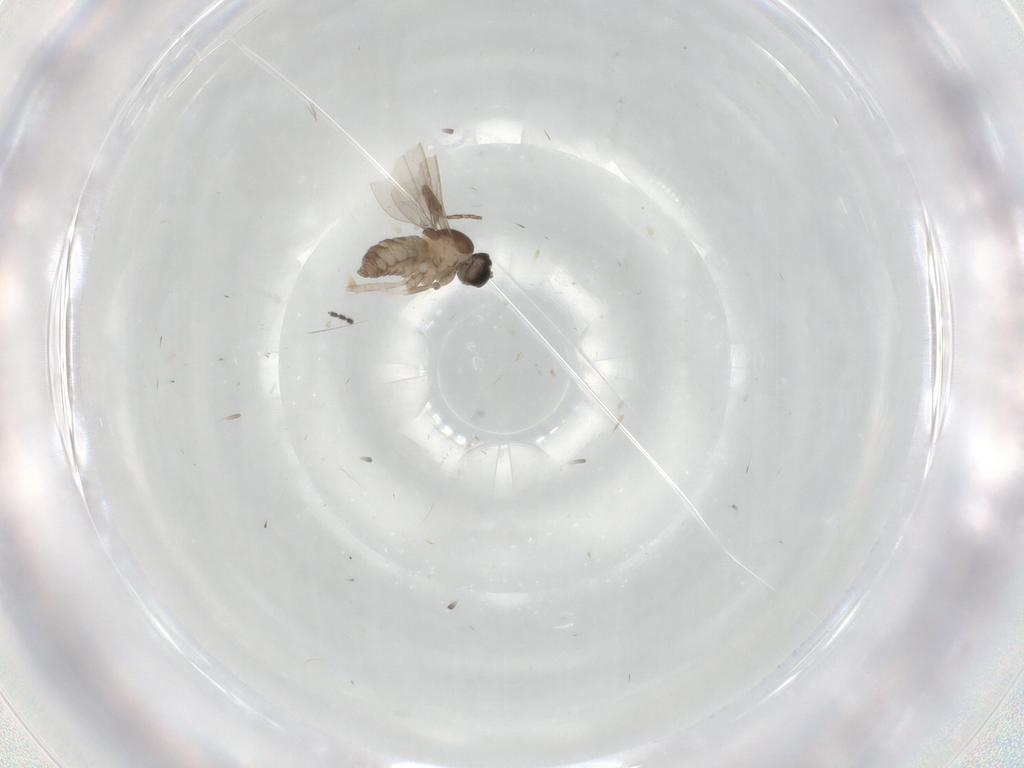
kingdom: Animalia
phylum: Arthropoda
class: Insecta
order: Diptera
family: Cecidomyiidae
